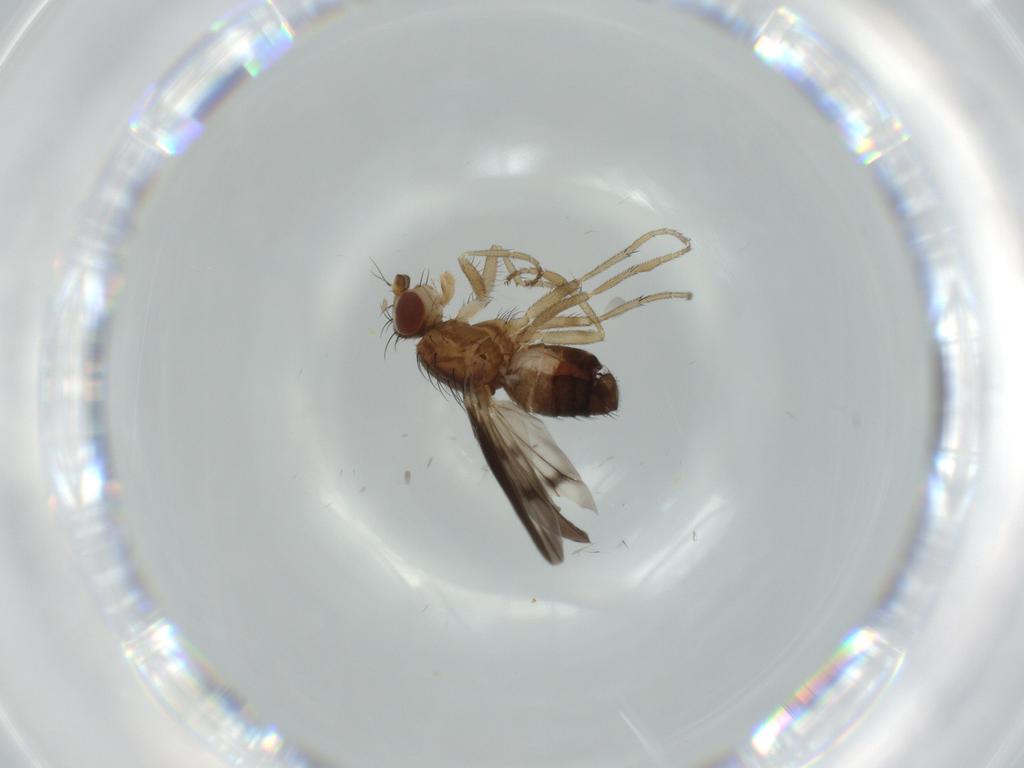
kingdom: Animalia
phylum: Arthropoda
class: Insecta
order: Diptera
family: Heleomyzidae
